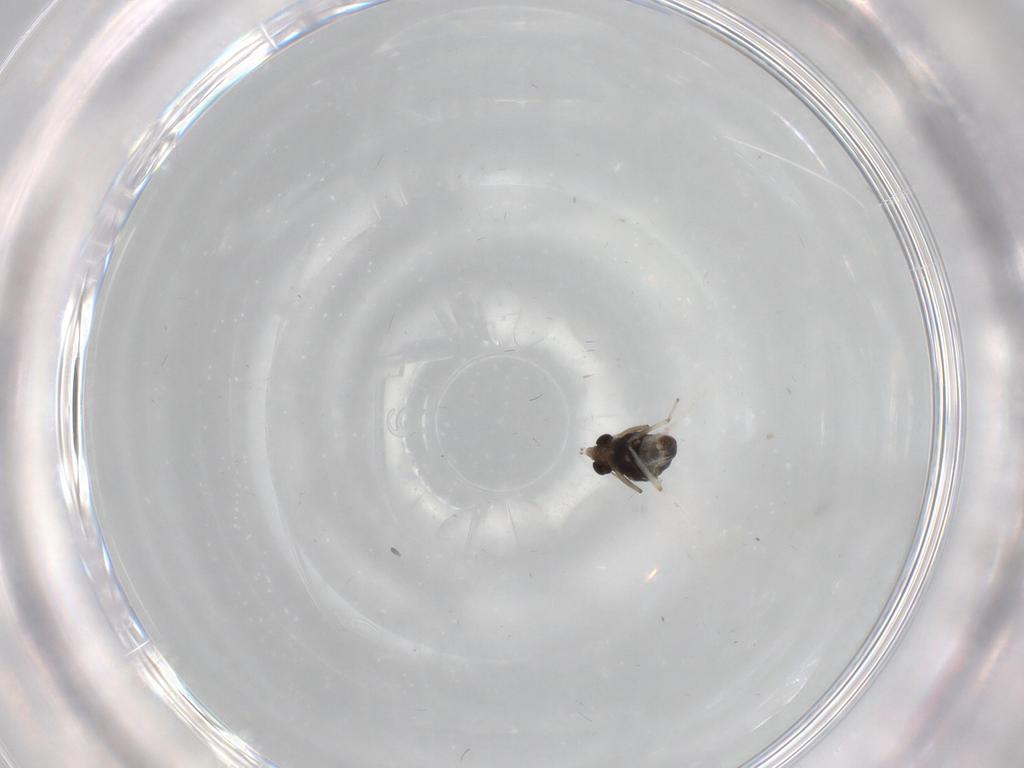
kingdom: Animalia
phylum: Arthropoda
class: Insecta
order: Diptera
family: Chironomidae
